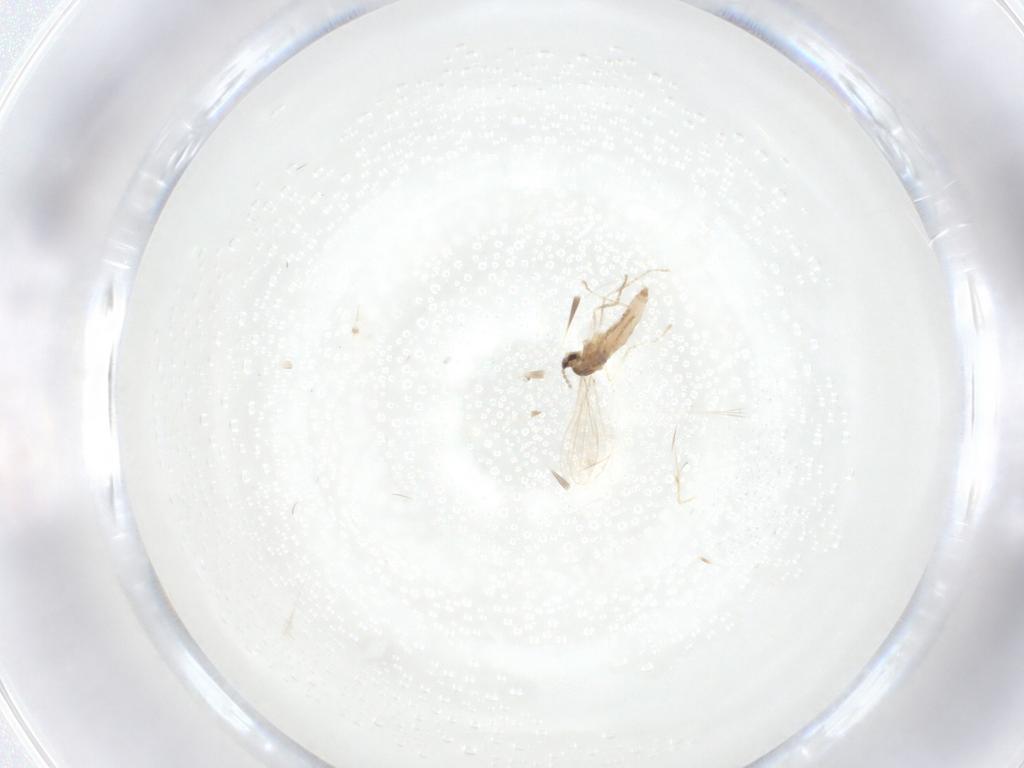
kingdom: Animalia
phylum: Arthropoda
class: Insecta
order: Diptera
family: Cecidomyiidae
